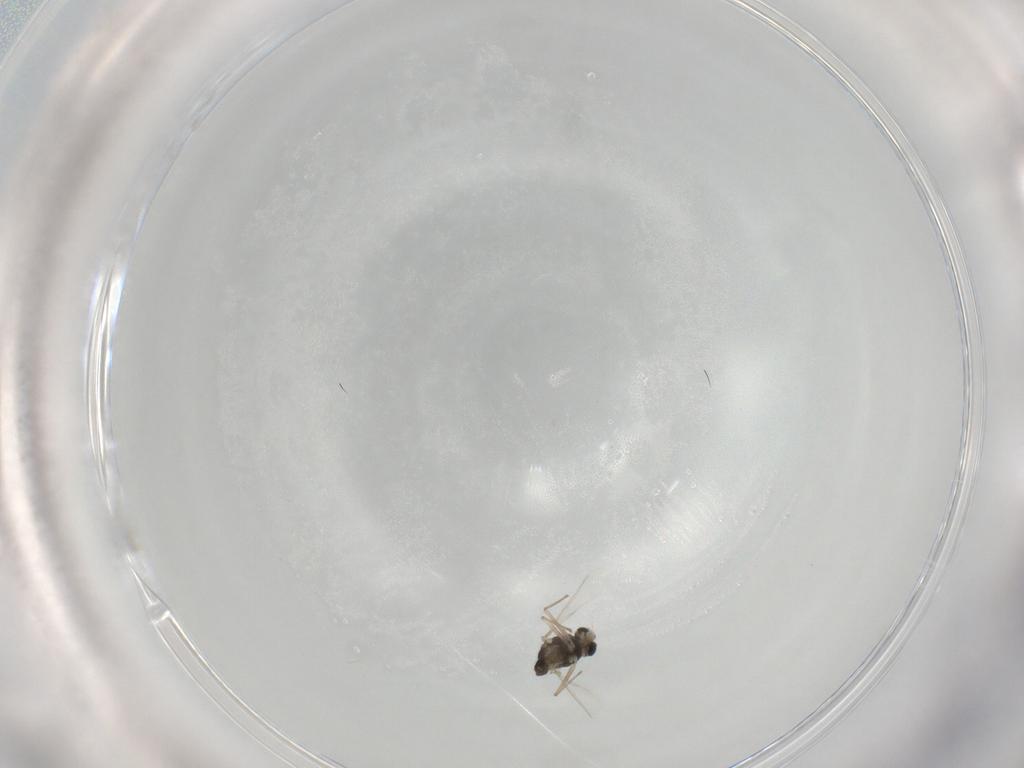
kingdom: Animalia
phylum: Arthropoda
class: Insecta
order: Diptera
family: Chironomidae
